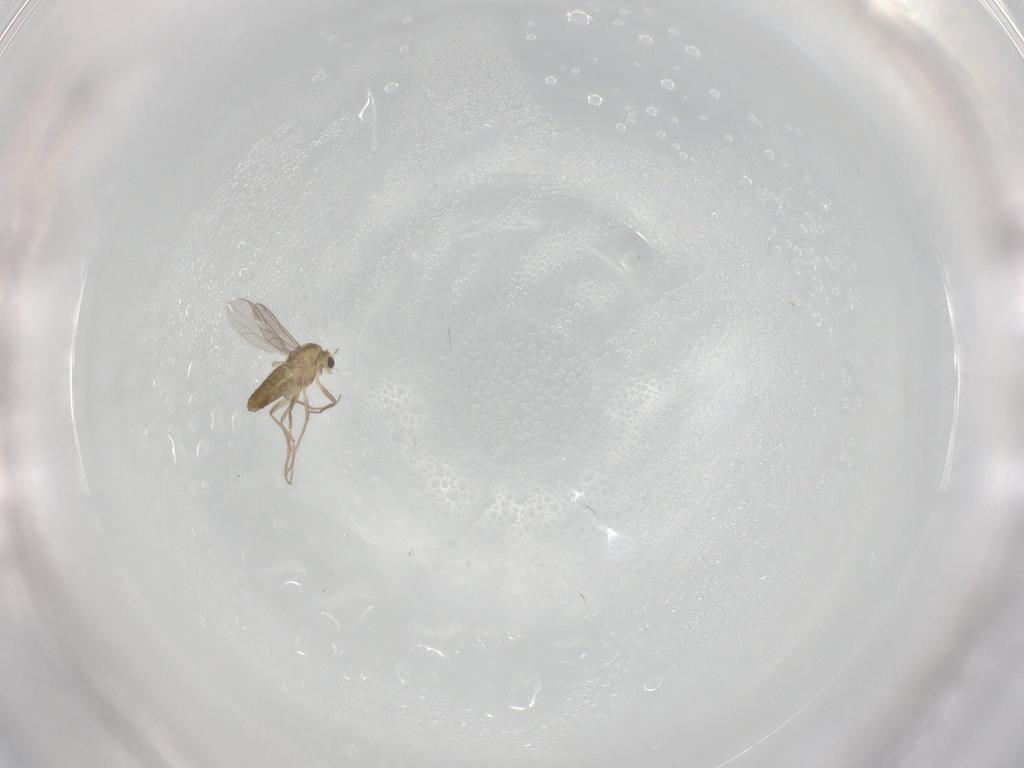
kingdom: Animalia
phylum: Arthropoda
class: Insecta
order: Diptera
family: Chironomidae
